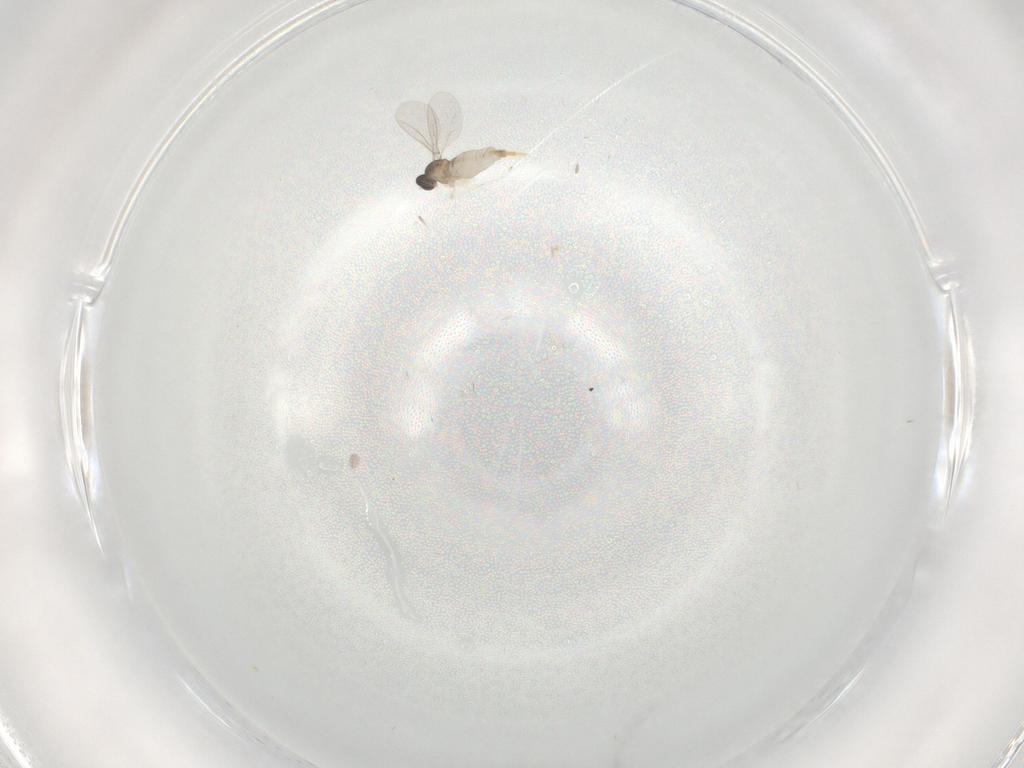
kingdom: Animalia
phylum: Arthropoda
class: Insecta
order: Diptera
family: Cecidomyiidae
